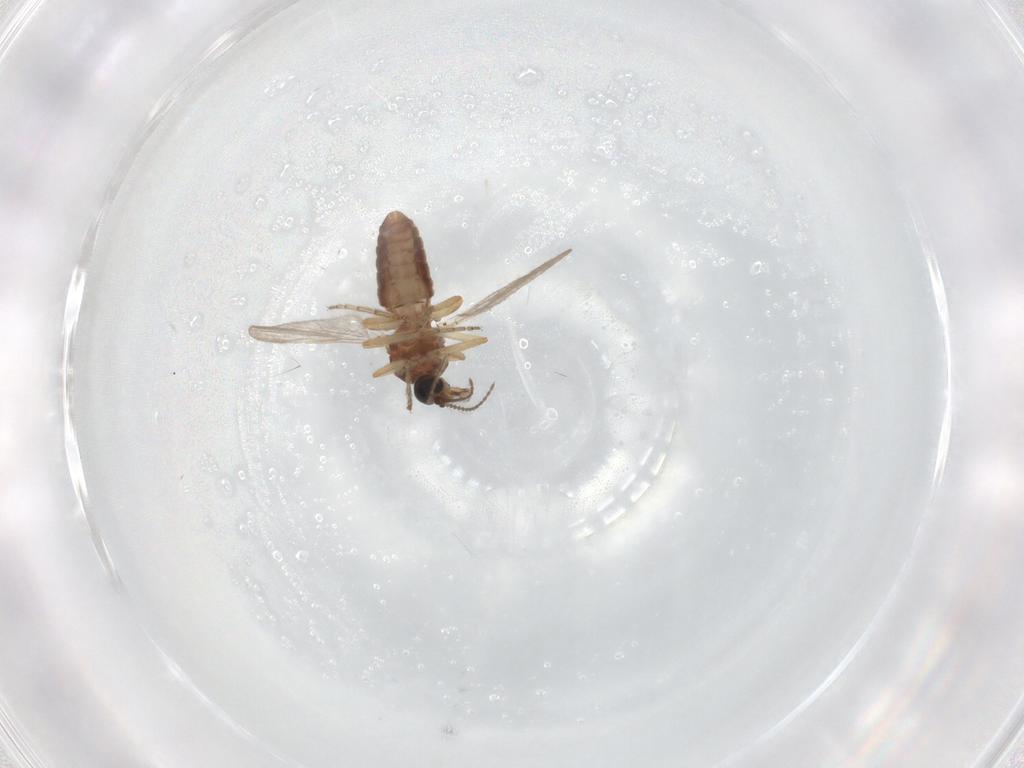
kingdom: Animalia
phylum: Arthropoda
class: Insecta
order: Diptera
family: Ceratopogonidae
